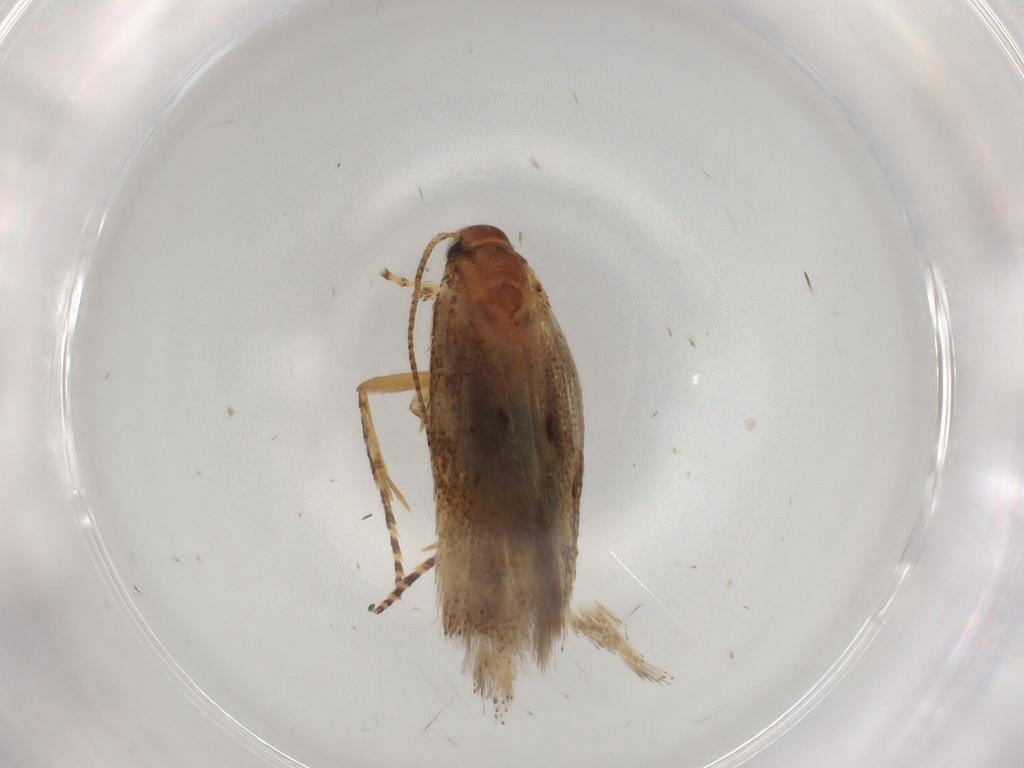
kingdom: Animalia
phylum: Arthropoda
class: Insecta
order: Lepidoptera
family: Gelechiidae
